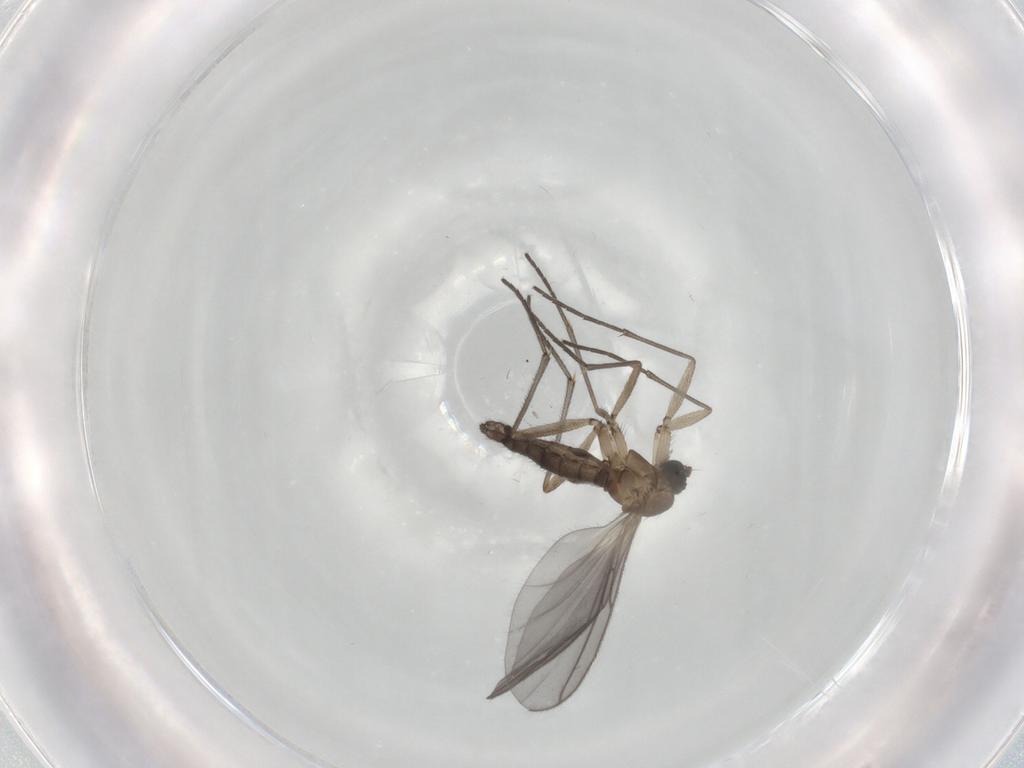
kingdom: Animalia
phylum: Arthropoda
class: Insecta
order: Diptera
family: Sciaridae
